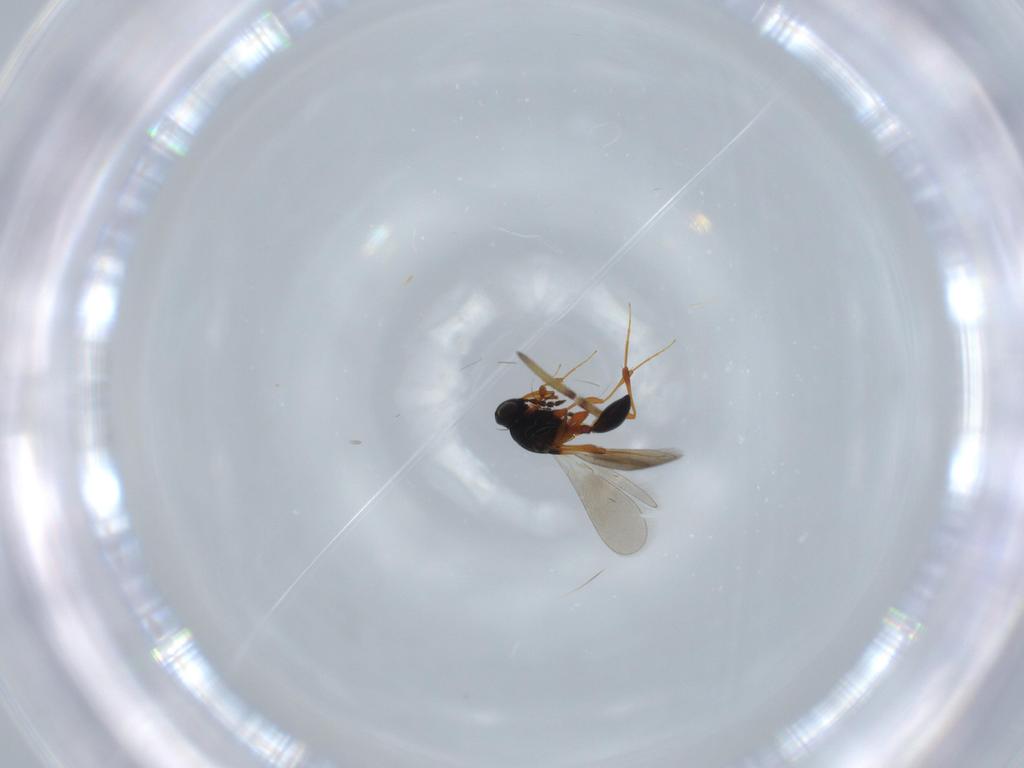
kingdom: Animalia
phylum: Arthropoda
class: Insecta
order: Hymenoptera
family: Platygastridae
